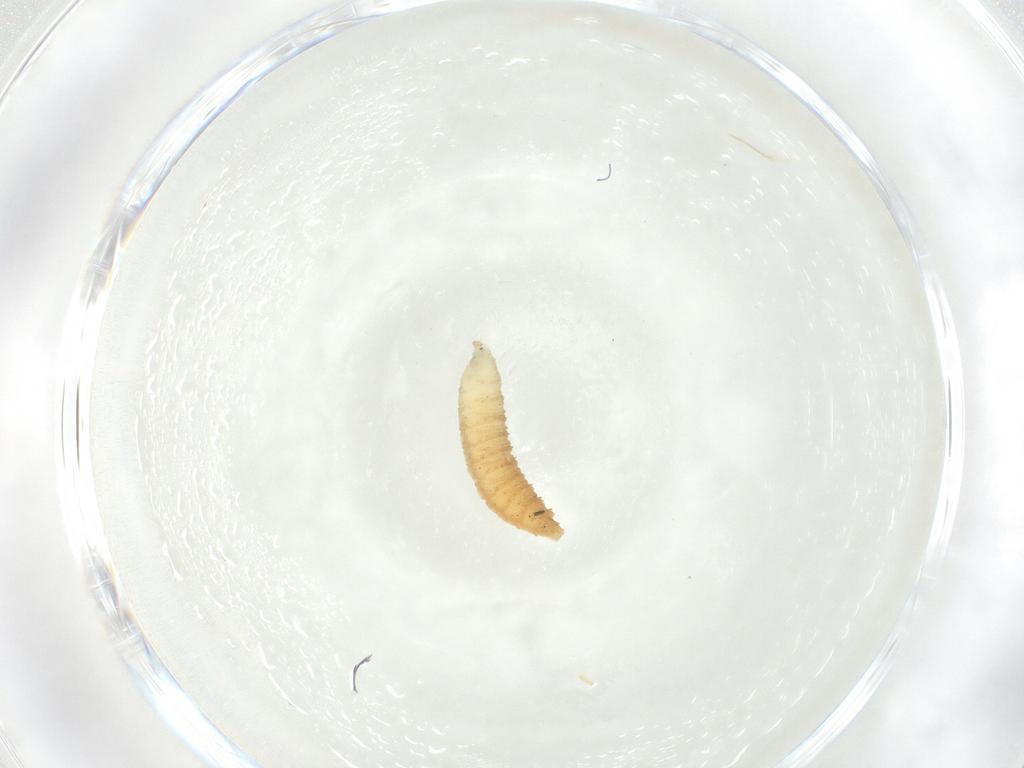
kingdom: Animalia
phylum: Arthropoda
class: Insecta
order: Diptera
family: Cecidomyiidae
